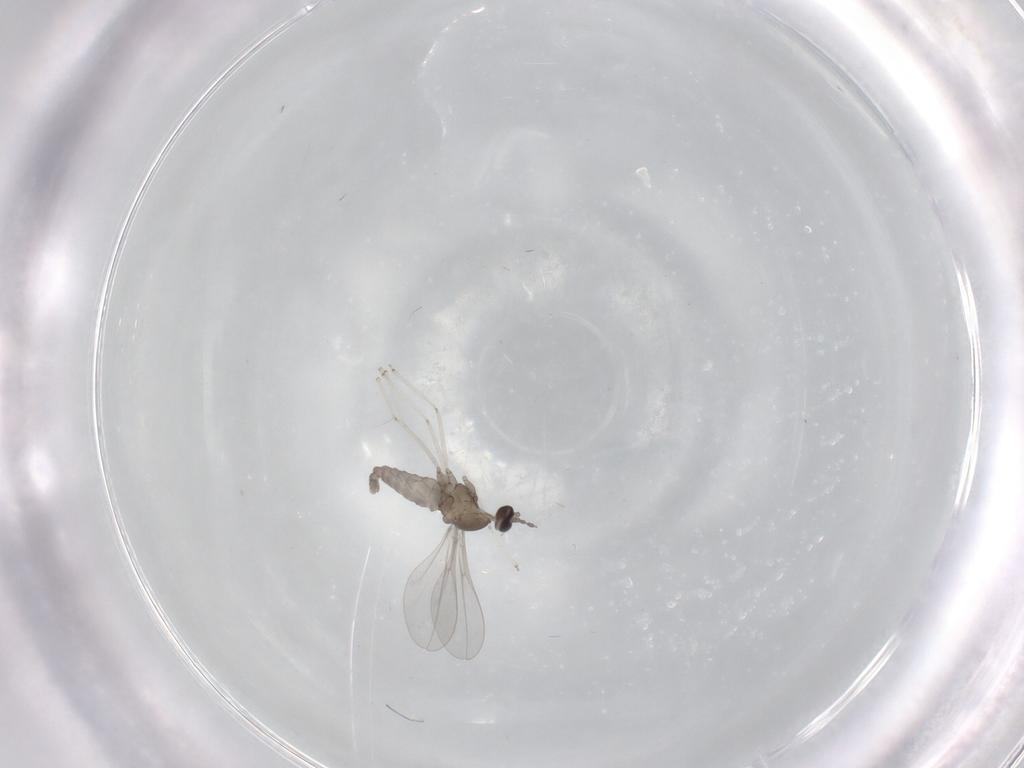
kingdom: Animalia
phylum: Arthropoda
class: Insecta
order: Diptera
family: Cecidomyiidae
